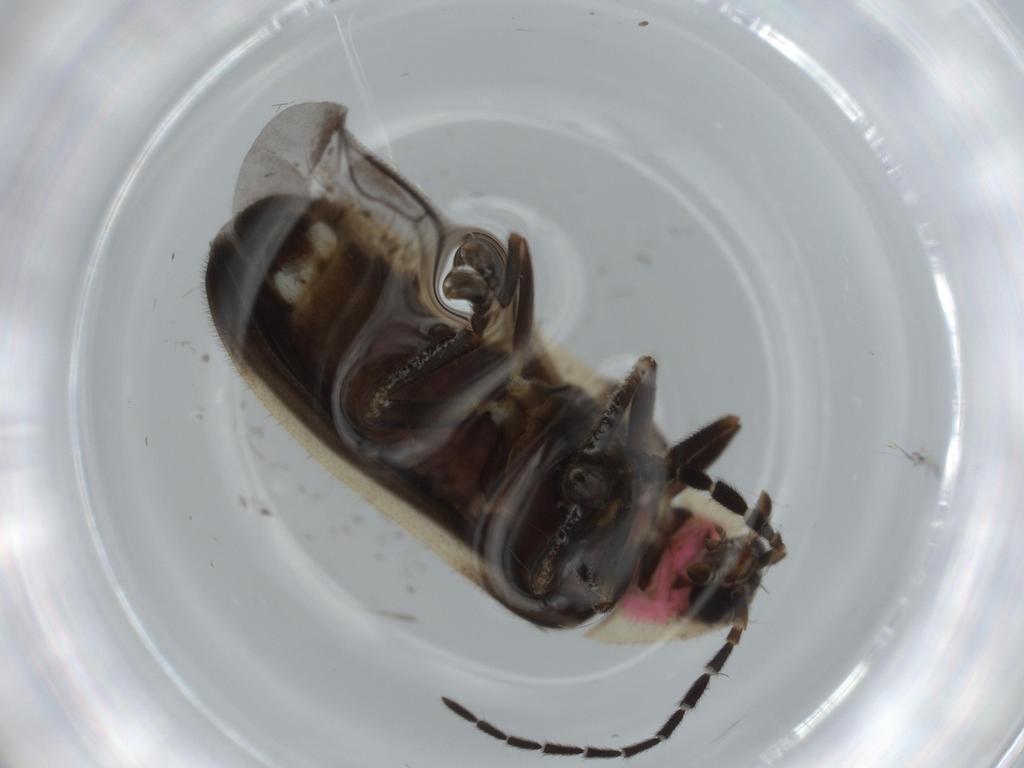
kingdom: Animalia
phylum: Arthropoda
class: Insecta
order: Coleoptera
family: Lampyridae
